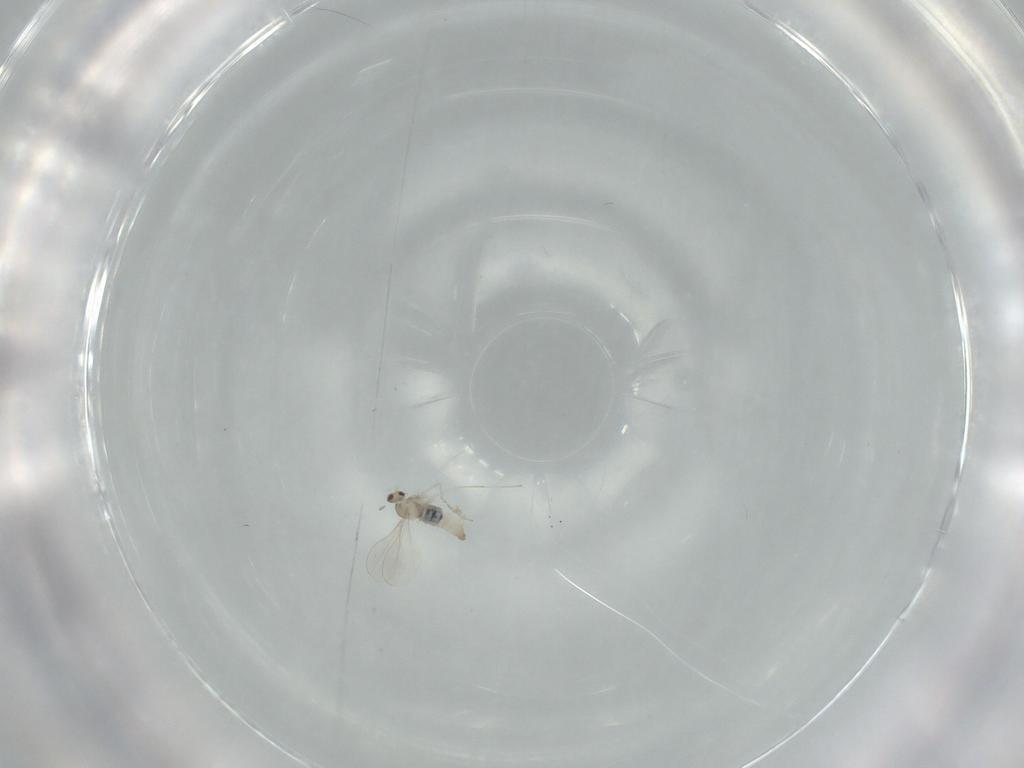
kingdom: Animalia
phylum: Arthropoda
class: Insecta
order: Diptera
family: Cecidomyiidae
